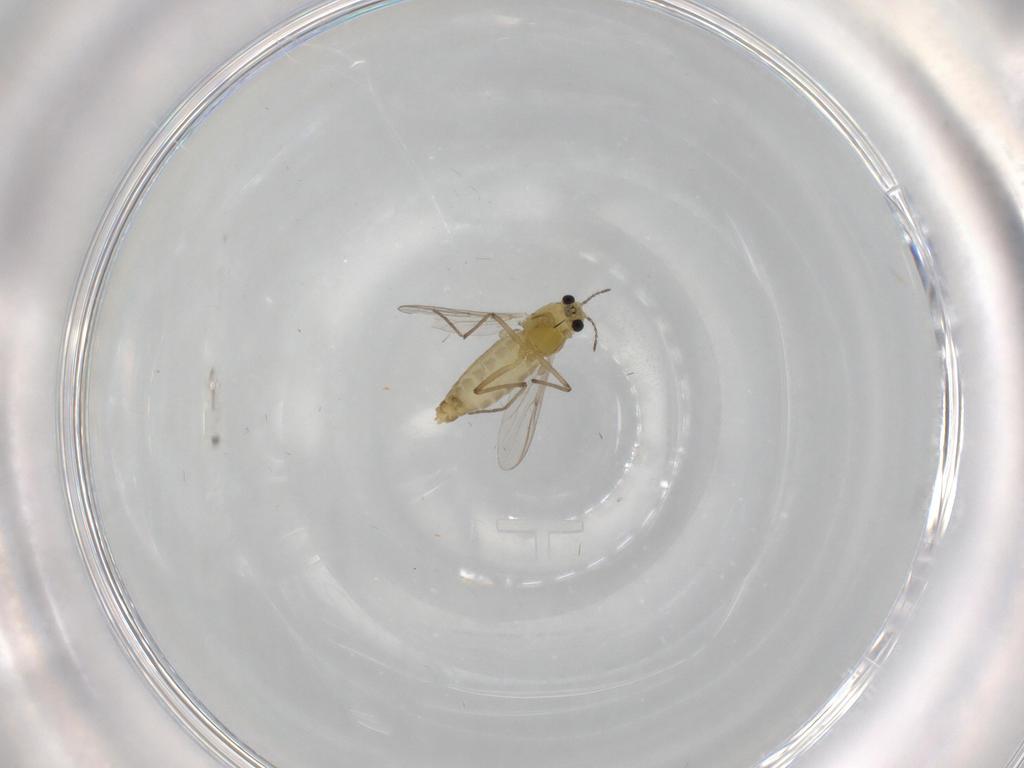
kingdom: Animalia
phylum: Arthropoda
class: Insecta
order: Diptera
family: Chironomidae
